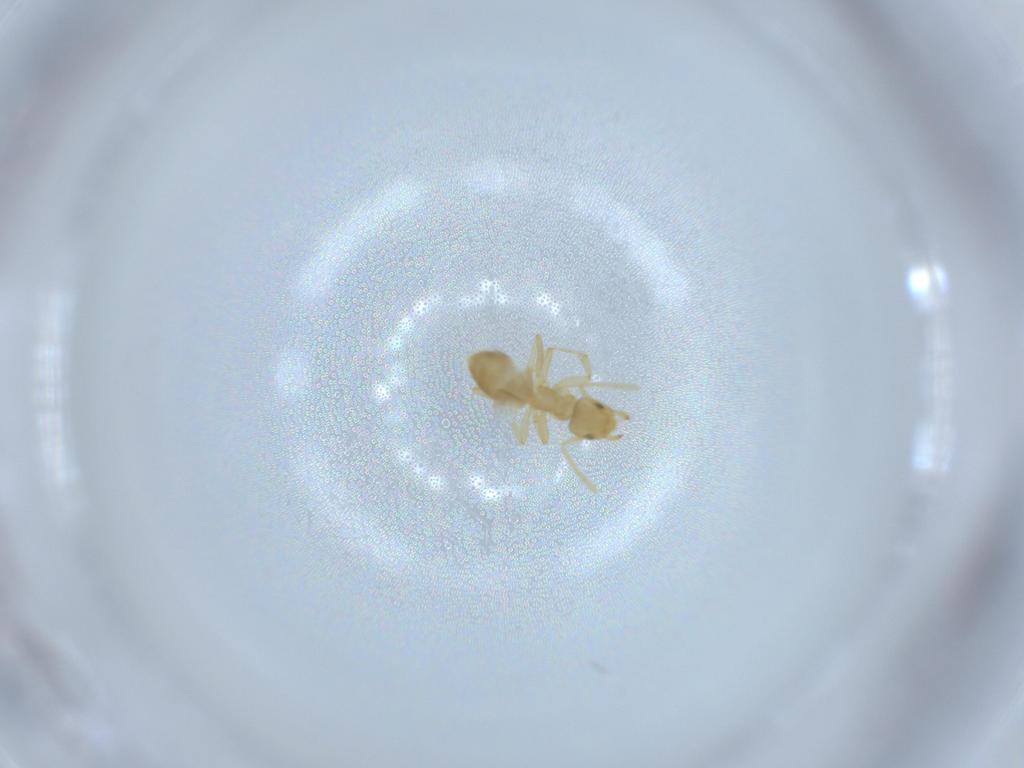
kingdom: Animalia
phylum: Arthropoda
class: Insecta
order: Hymenoptera
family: Formicidae
